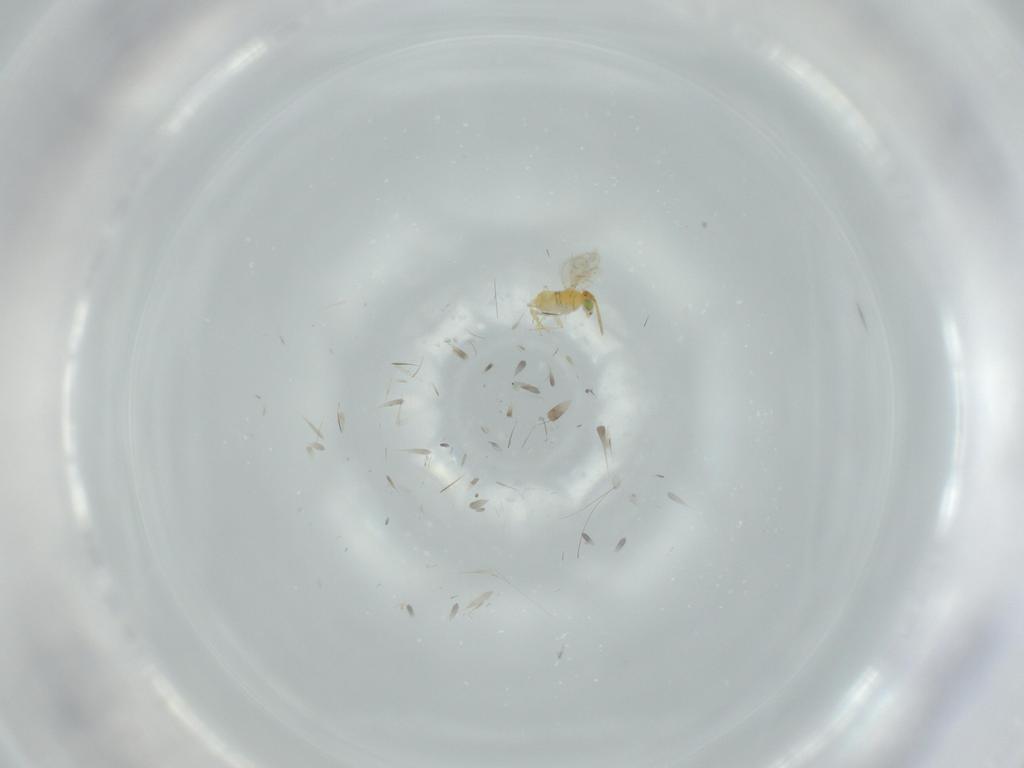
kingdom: Animalia
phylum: Arthropoda
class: Insecta
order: Hymenoptera
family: Aphelinidae
